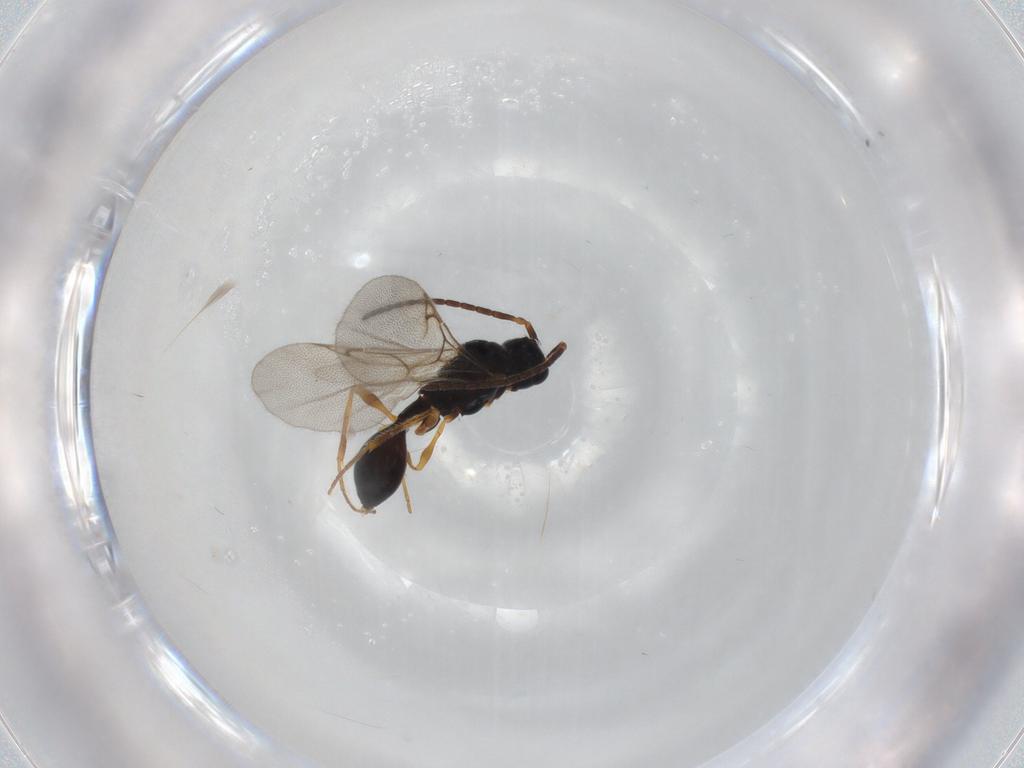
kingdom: Animalia
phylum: Arthropoda
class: Insecta
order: Hymenoptera
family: Diapriidae
